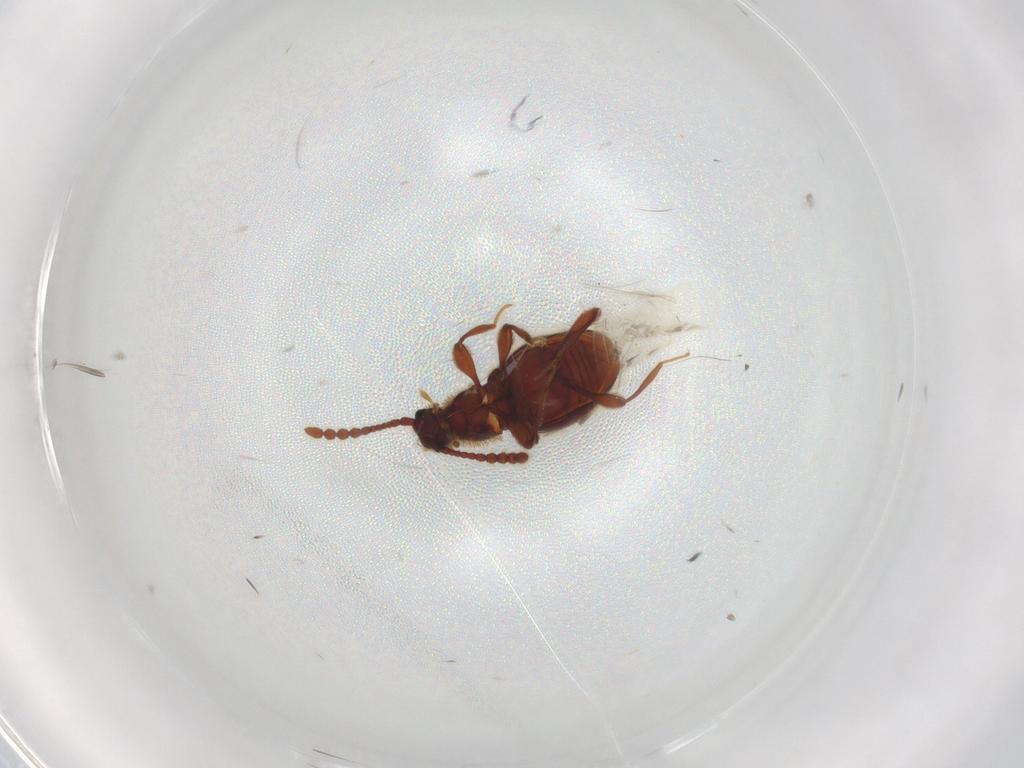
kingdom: Animalia
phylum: Arthropoda
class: Insecta
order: Coleoptera
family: Staphylinidae
